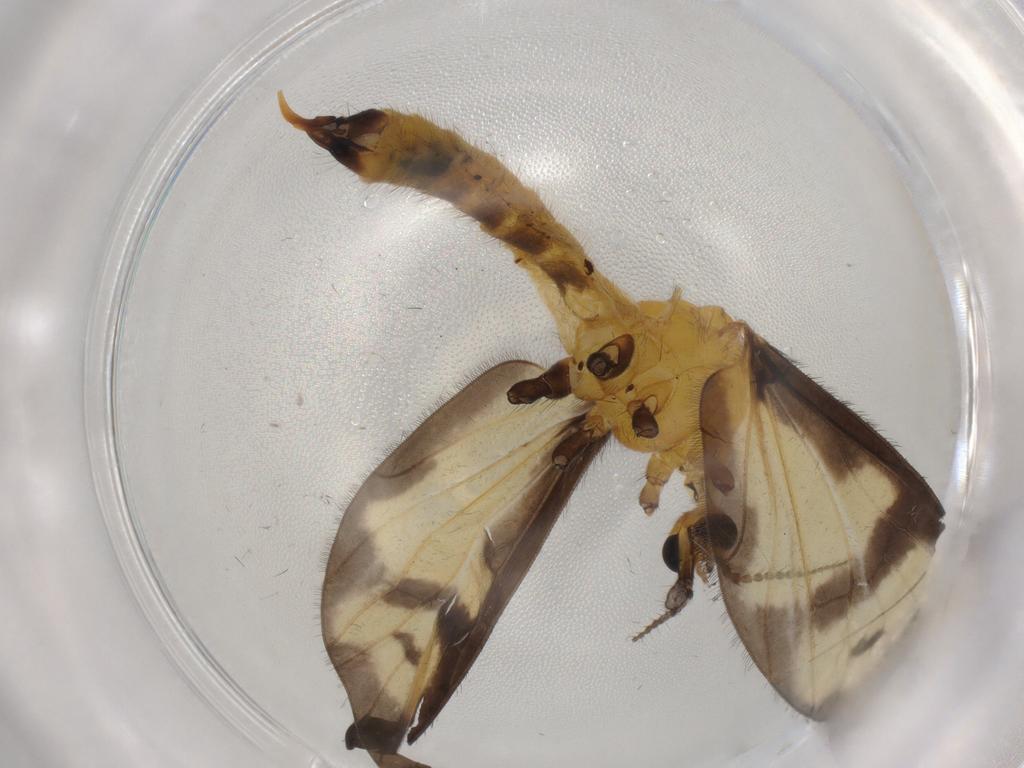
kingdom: Animalia
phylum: Arthropoda
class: Insecta
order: Diptera
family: Limoniidae
